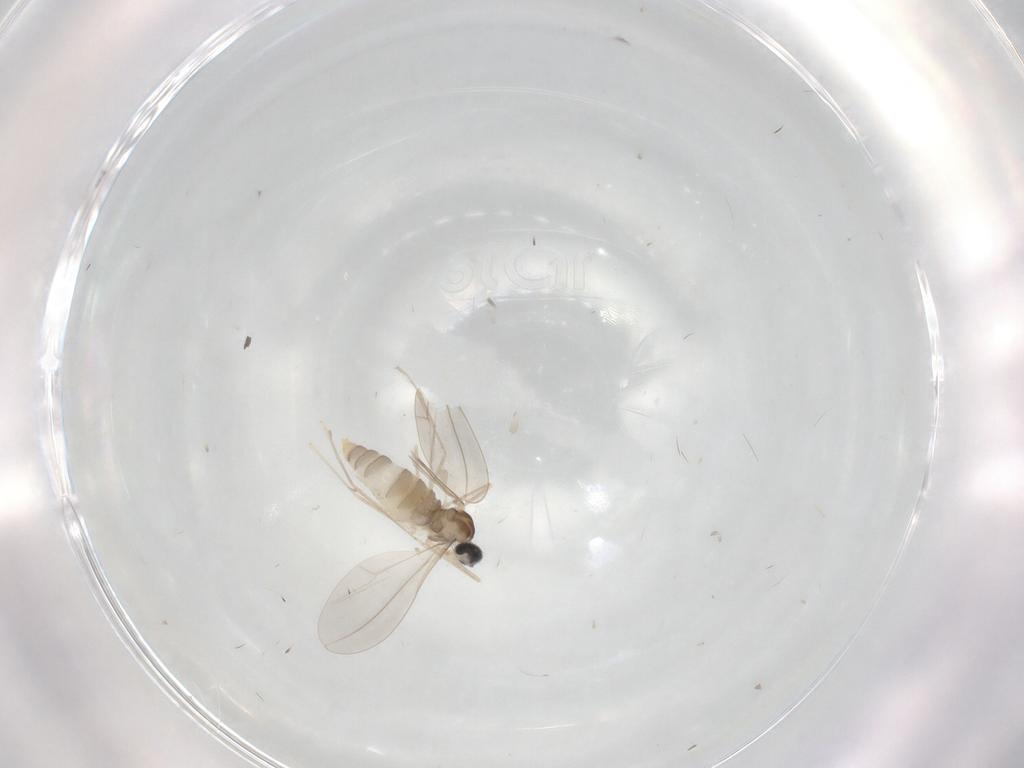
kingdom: Animalia
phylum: Arthropoda
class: Insecta
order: Diptera
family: Cecidomyiidae
